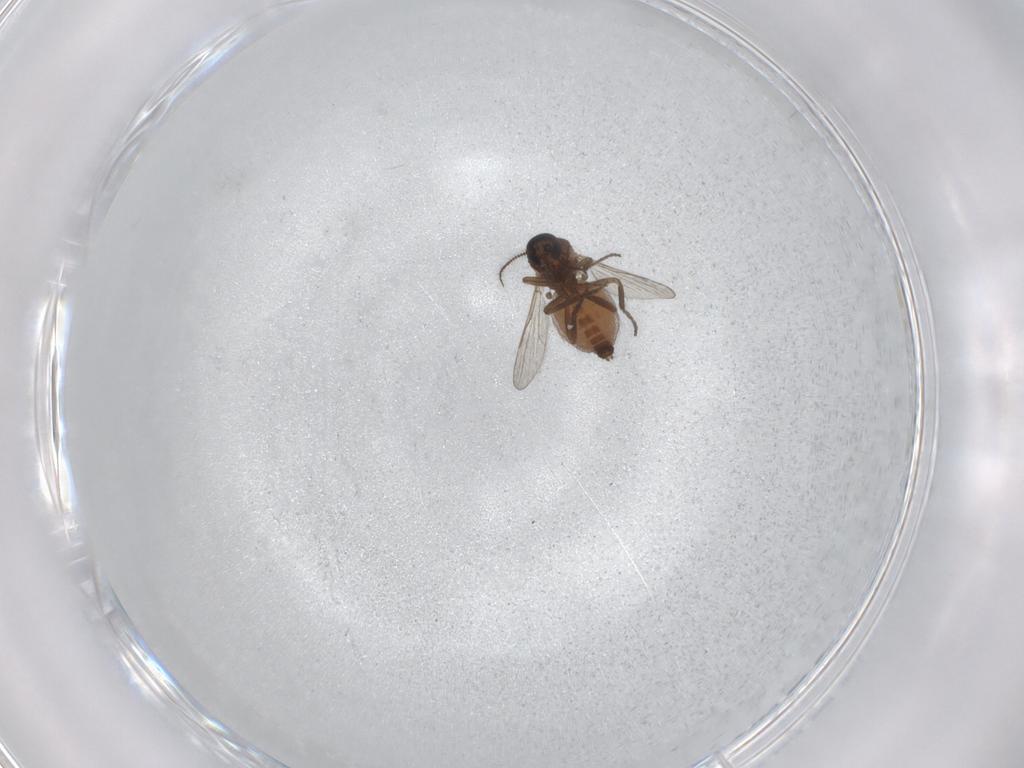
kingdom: Animalia
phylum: Arthropoda
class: Insecta
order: Diptera
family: Ceratopogonidae
